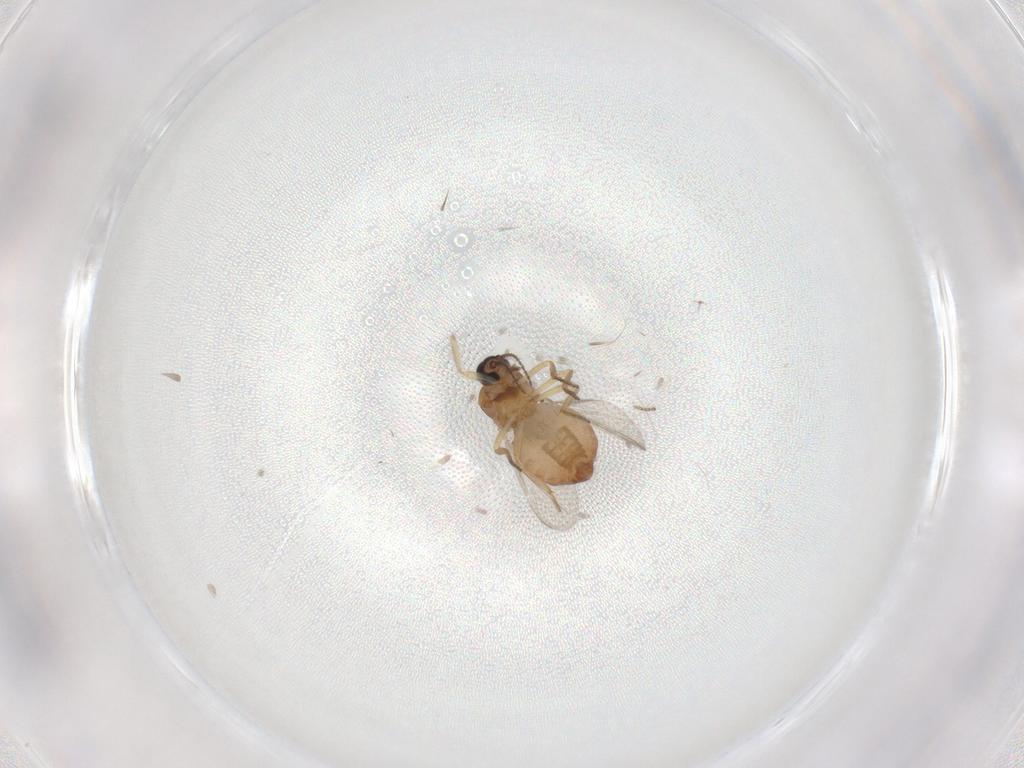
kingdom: Animalia
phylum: Arthropoda
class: Insecta
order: Diptera
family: Ceratopogonidae
